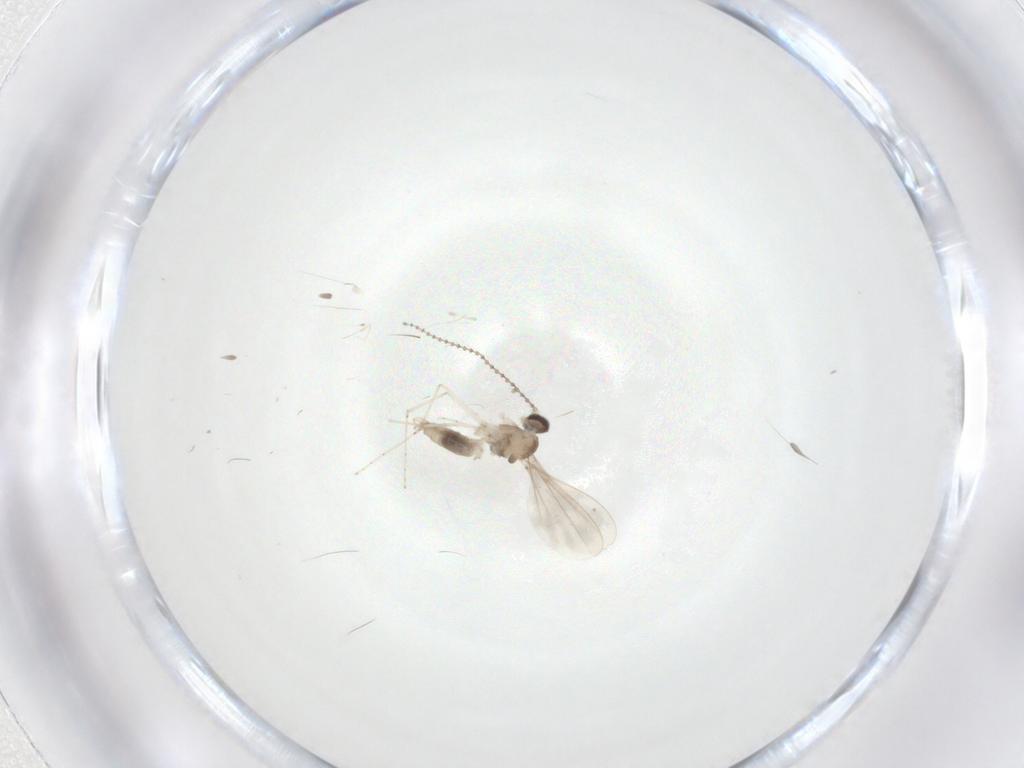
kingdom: Animalia
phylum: Arthropoda
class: Insecta
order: Diptera
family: Cecidomyiidae
